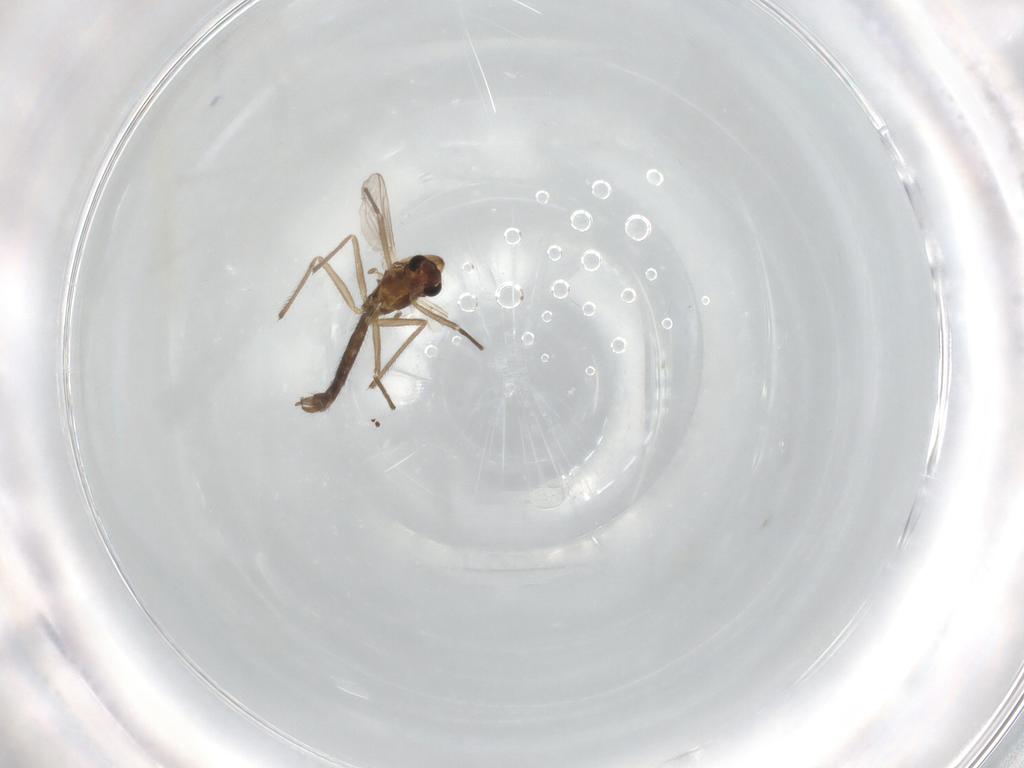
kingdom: Animalia
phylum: Arthropoda
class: Insecta
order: Diptera
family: Chironomidae
